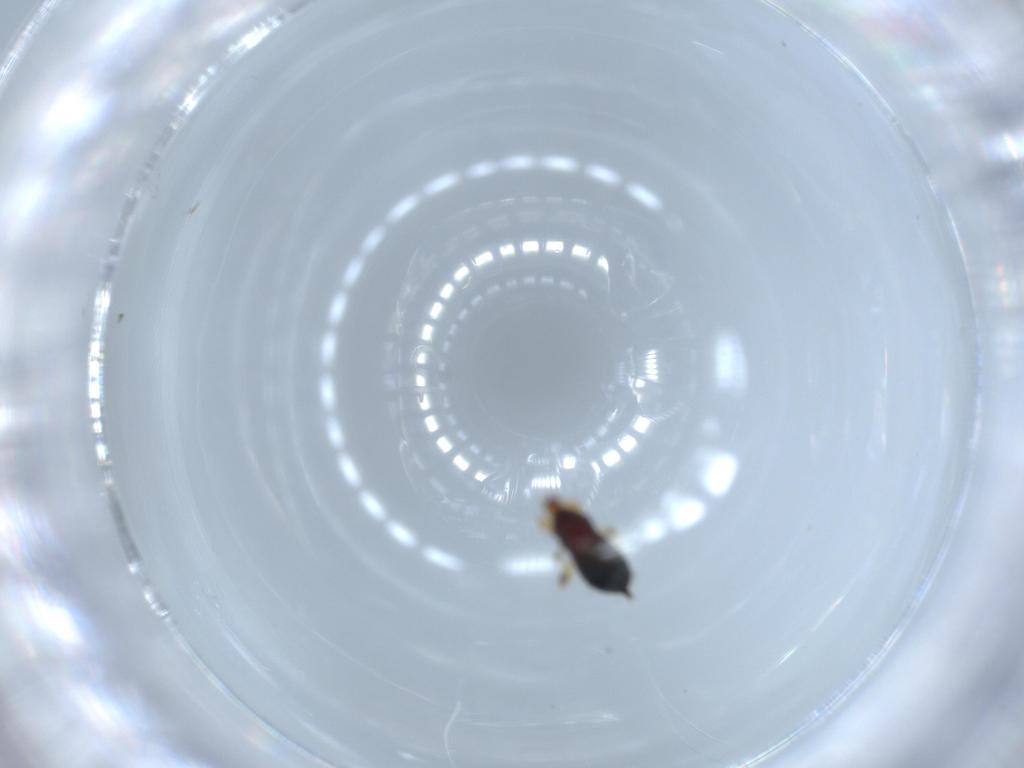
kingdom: Animalia
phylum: Arthropoda
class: Insecta
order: Thysanoptera
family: Phlaeothripidae
